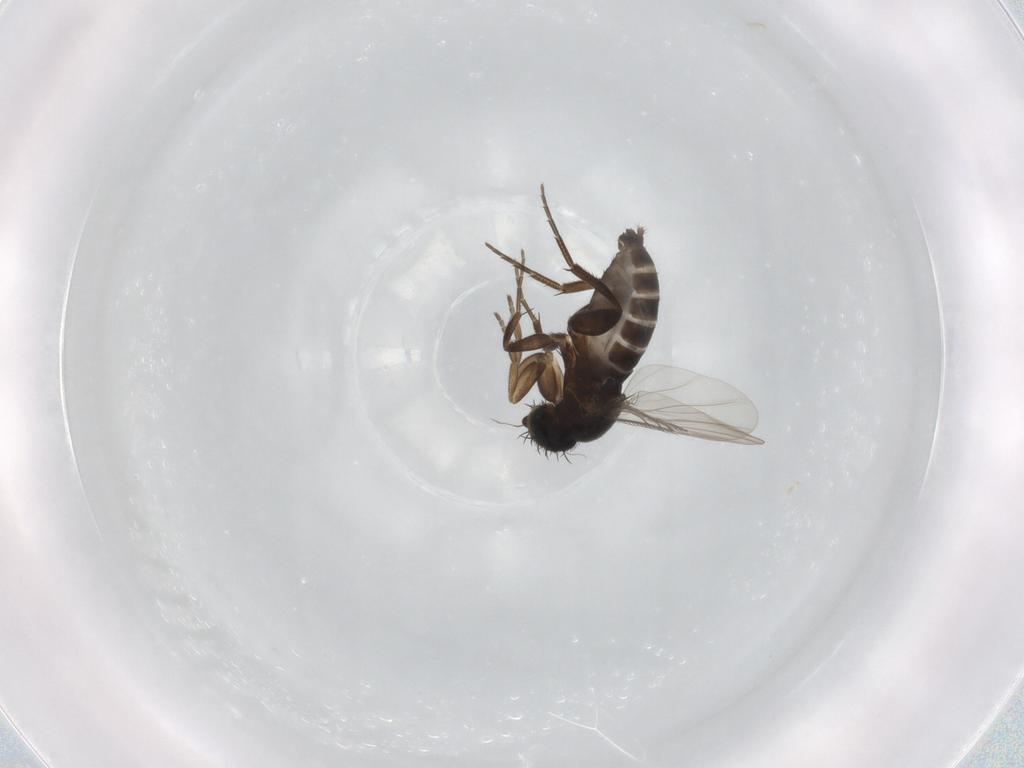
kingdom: Animalia
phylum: Arthropoda
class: Insecta
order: Diptera
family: Phoridae
